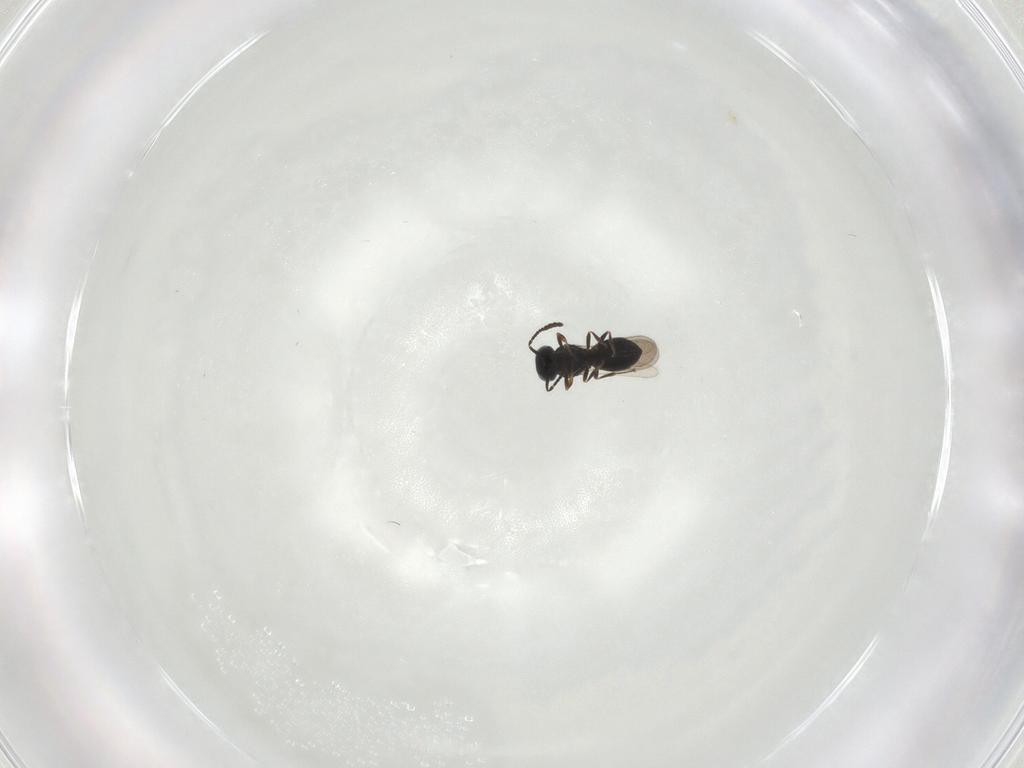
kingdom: Animalia
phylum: Arthropoda
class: Insecta
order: Hymenoptera
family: Scelionidae
